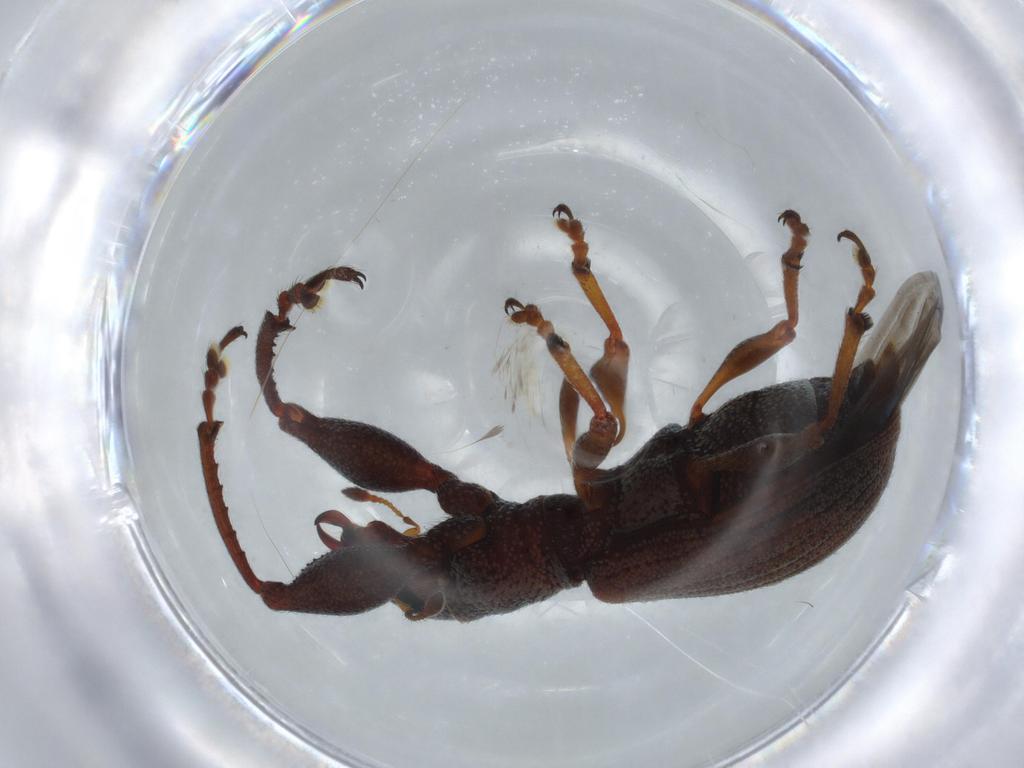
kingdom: Animalia
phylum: Arthropoda
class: Insecta
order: Coleoptera
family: Curculionidae
